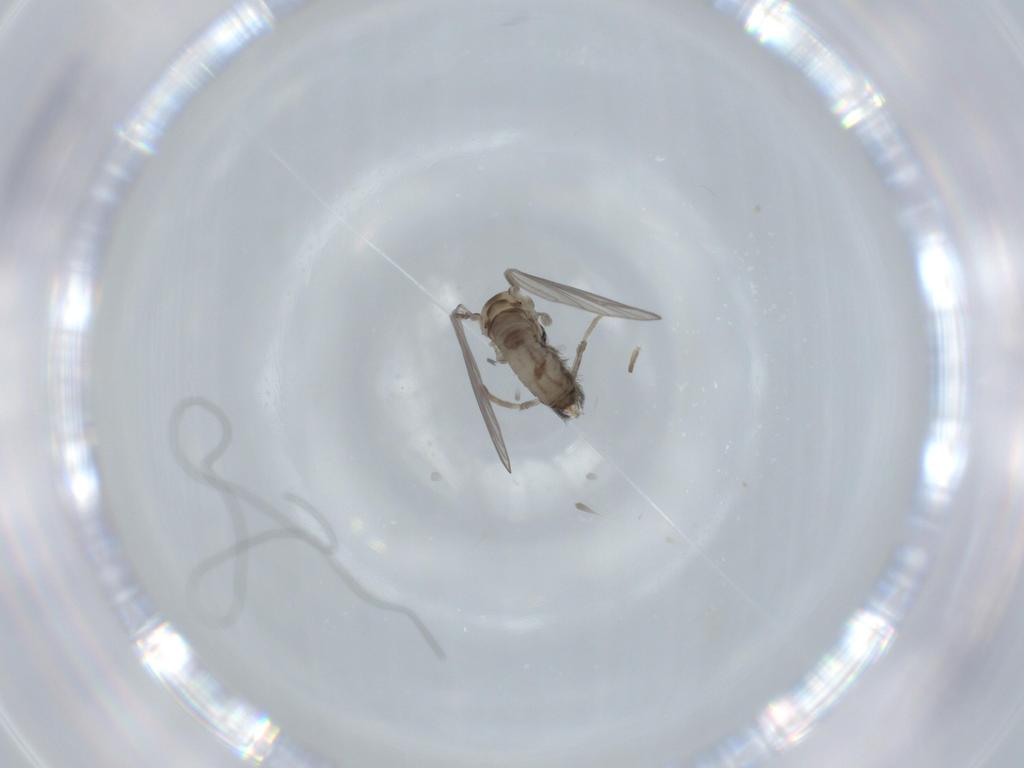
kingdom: Animalia
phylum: Arthropoda
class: Insecta
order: Diptera
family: Psychodidae
